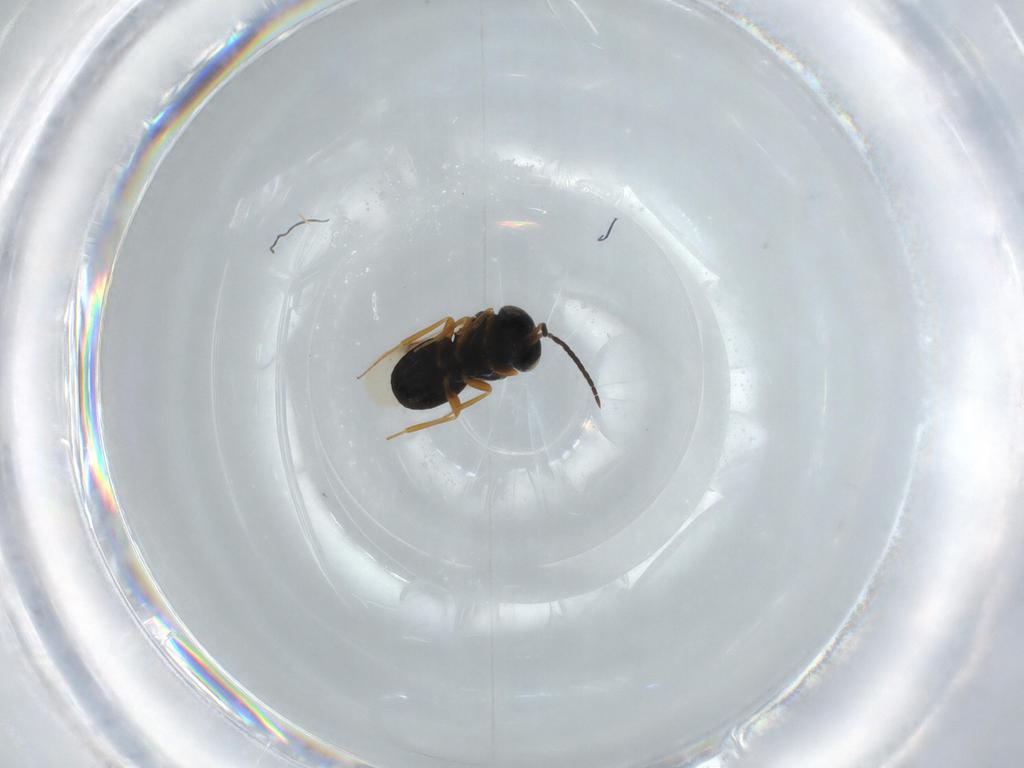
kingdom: Animalia
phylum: Arthropoda
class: Insecta
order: Hymenoptera
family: Scelionidae
